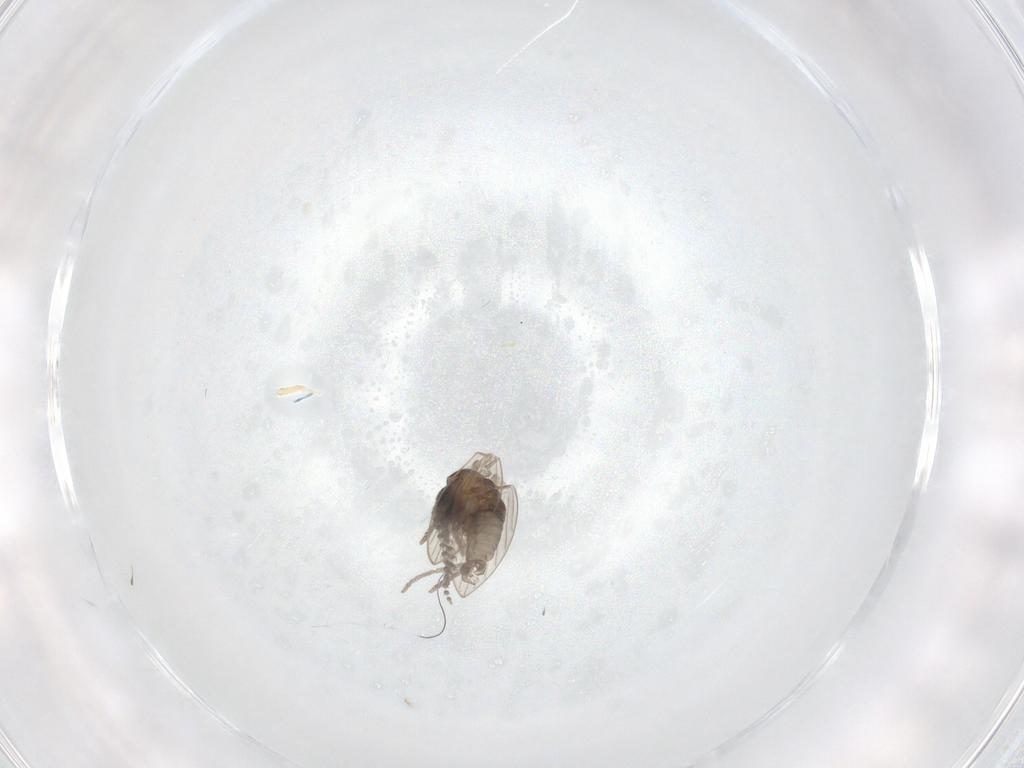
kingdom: Animalia
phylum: Arthropoda
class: Insecta
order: Diptera
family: Psychodidae
